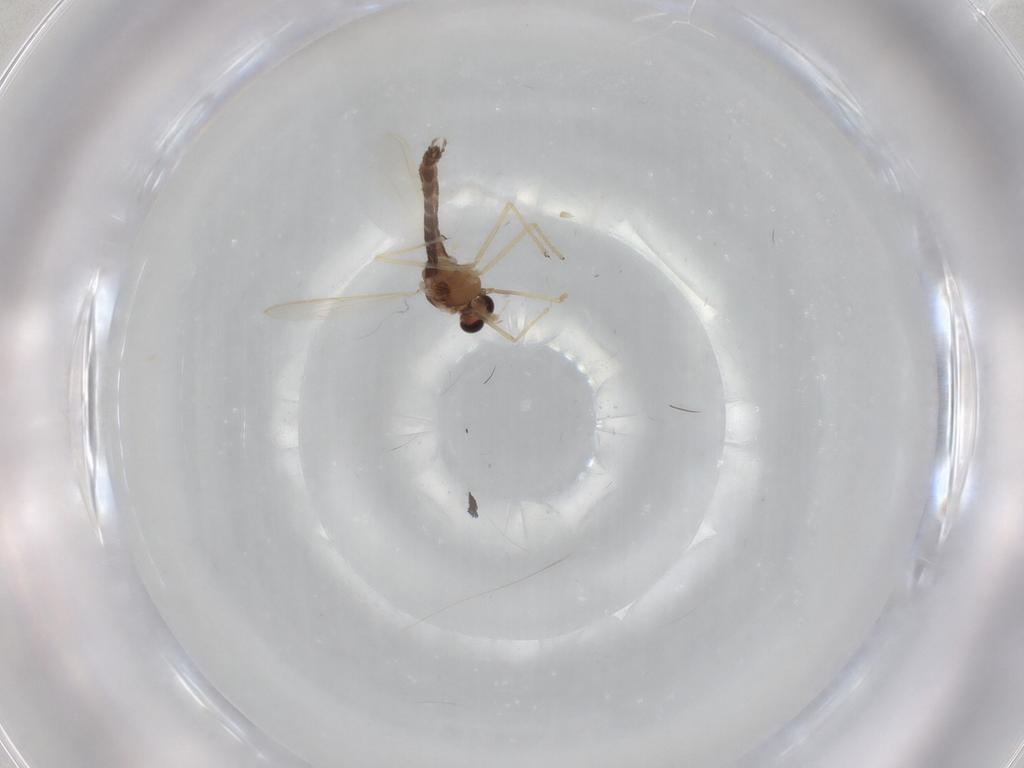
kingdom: Animalia
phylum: Arthropoda
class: Insecta
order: Diptera
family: Chironomidae
